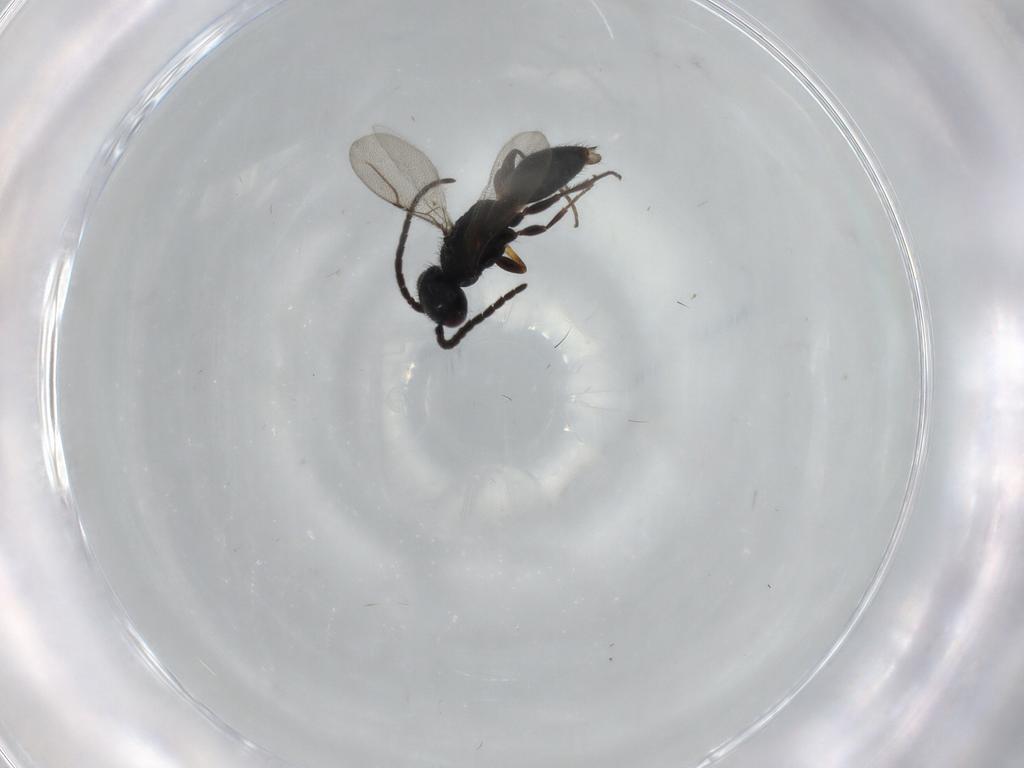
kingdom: Animalia
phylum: Arthropoda
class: Insecta
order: Hymenoptera
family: Bethylidae
